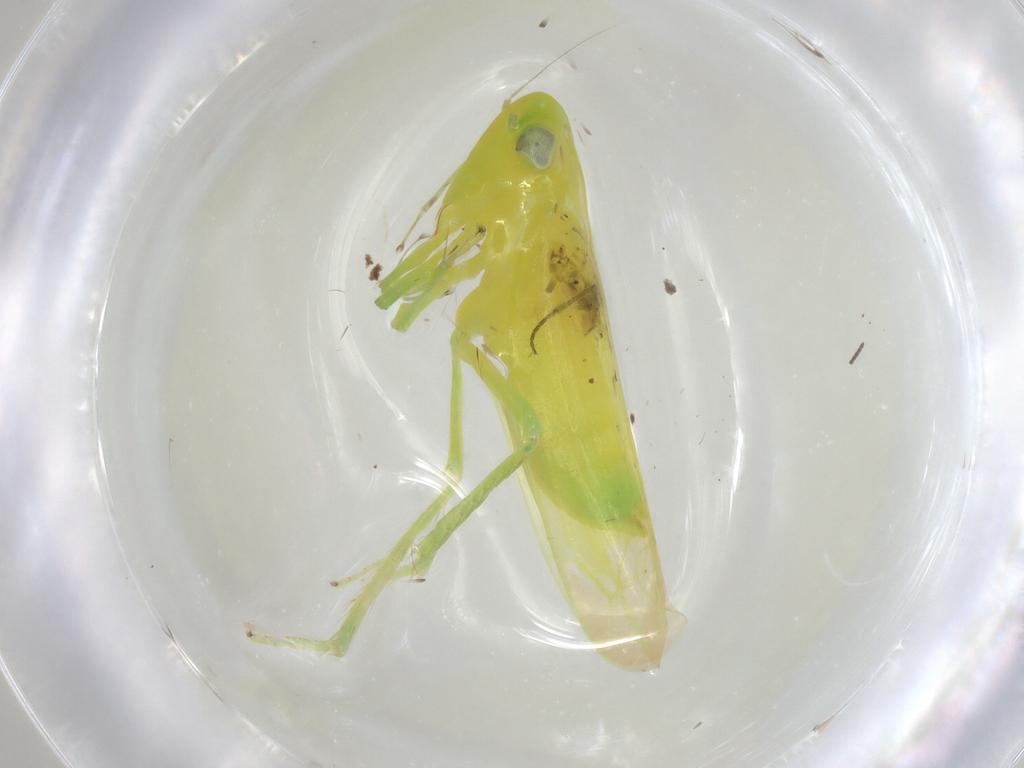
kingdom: Animalia
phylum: Arthropoda
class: Insecta
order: Hemiptera
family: Cicadellidae
